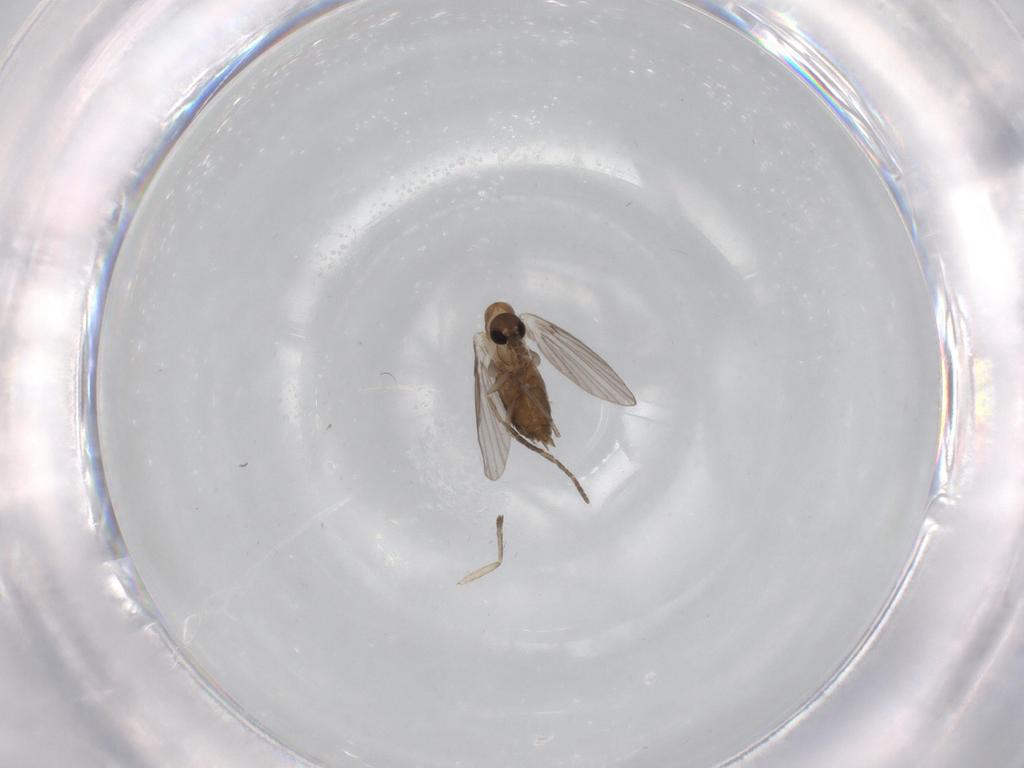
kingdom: Animalia
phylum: Arthropoda
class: Insecta
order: Diptera
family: Psychodidae
